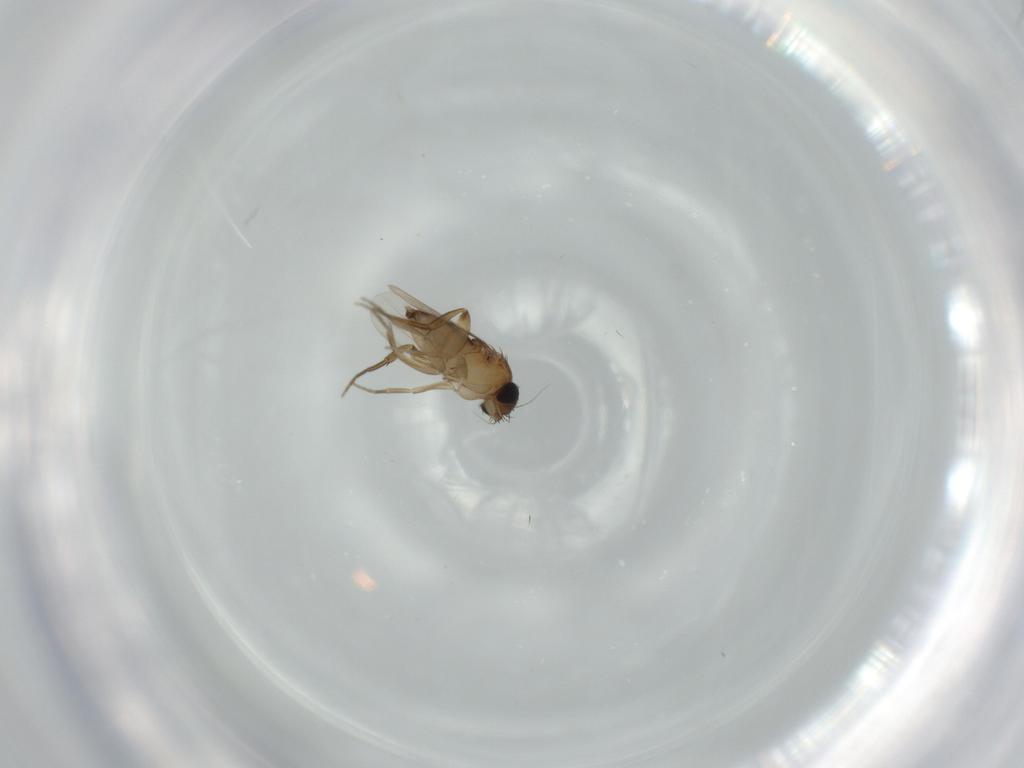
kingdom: Animalia
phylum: Arthropoda
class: Insecta
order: Diptera
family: Phoridae
